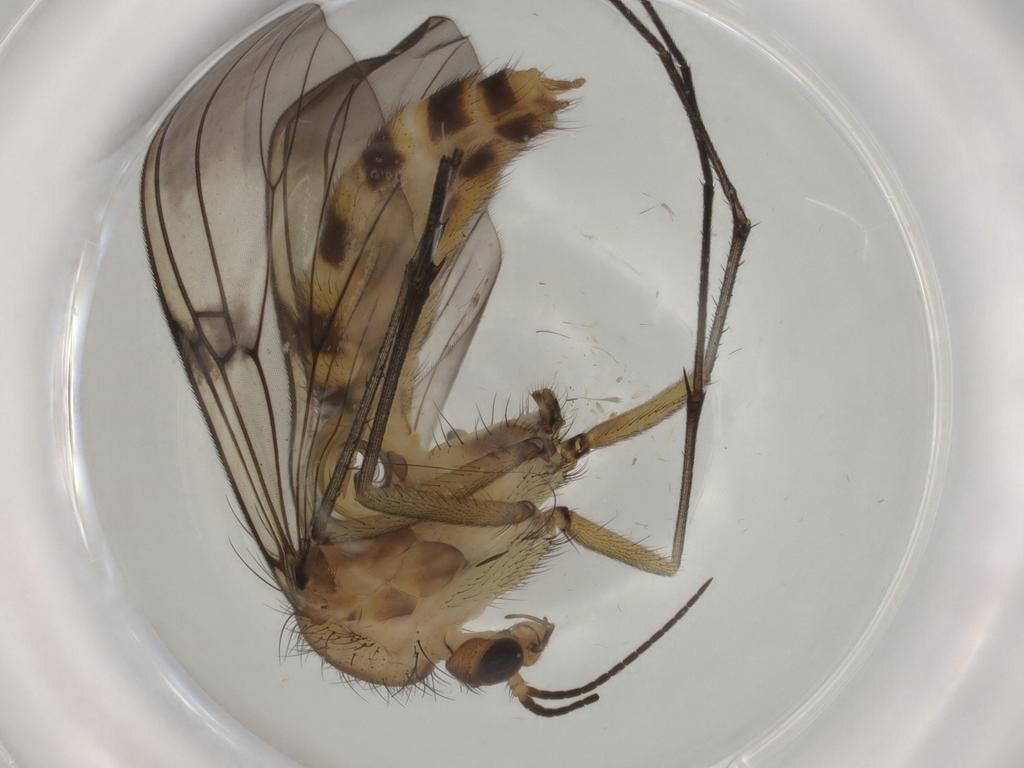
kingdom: Animalia
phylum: Arthropoda
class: Insecta
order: Diptera
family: Mycetophilidae
